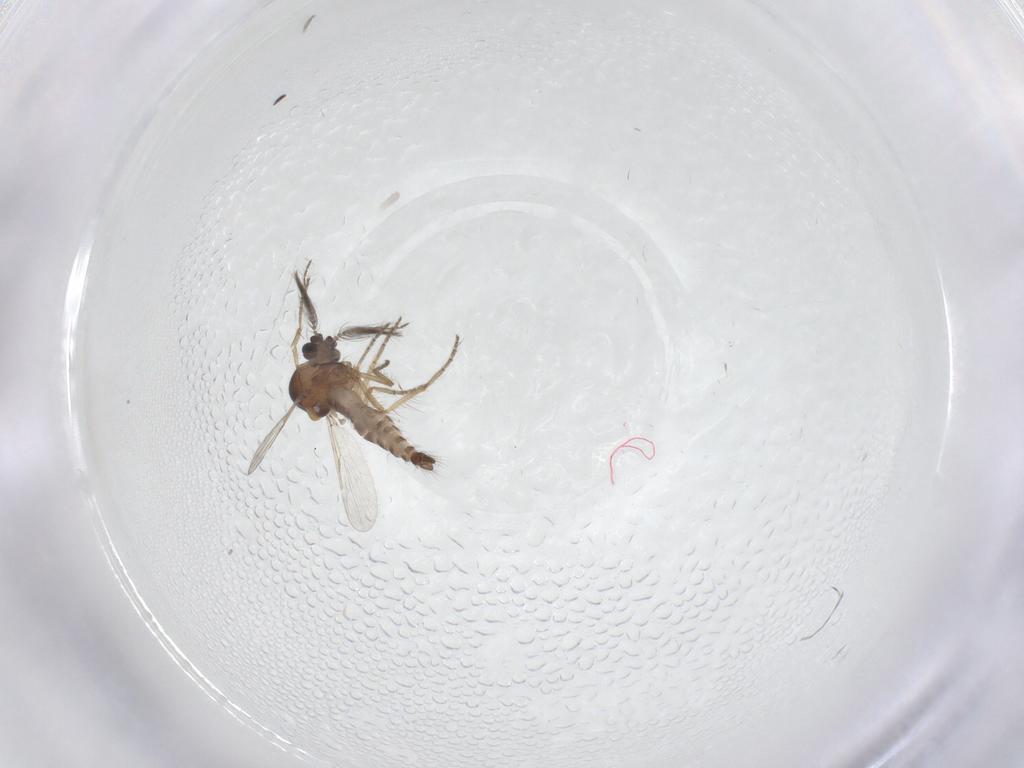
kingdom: Animalia
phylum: Arthropoda
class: Insecta
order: Diptera
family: Ceratopogonidae
